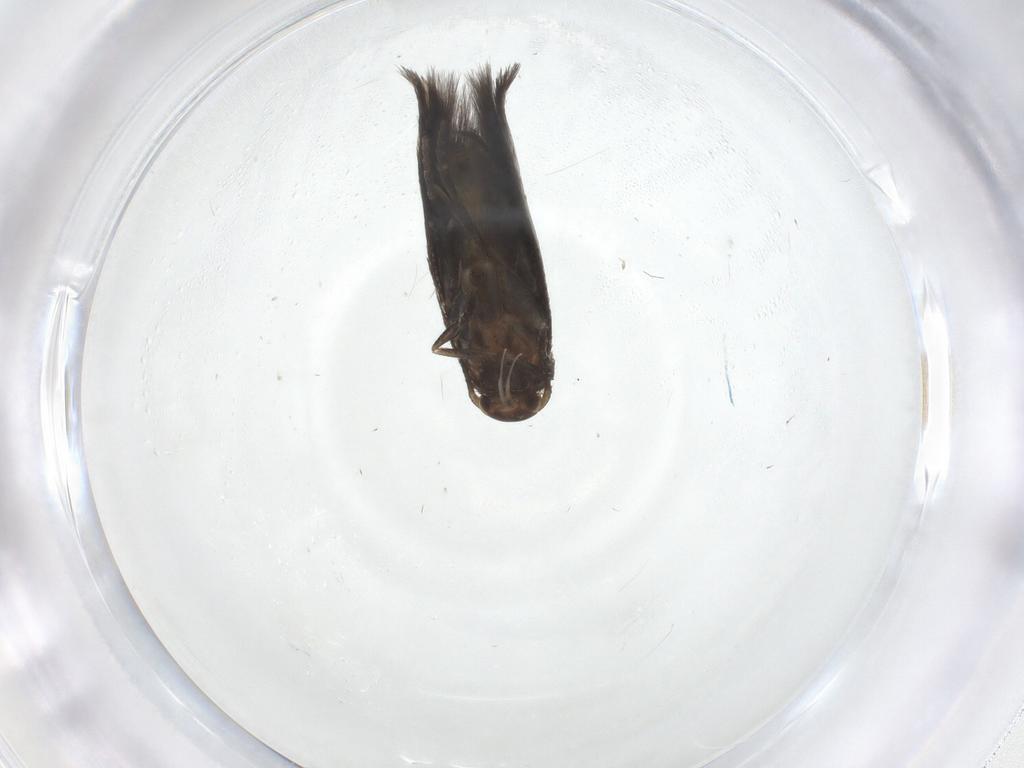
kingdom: Animalia
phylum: Arthropoda
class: Insecta
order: Lepidoptera
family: Elachistidae
